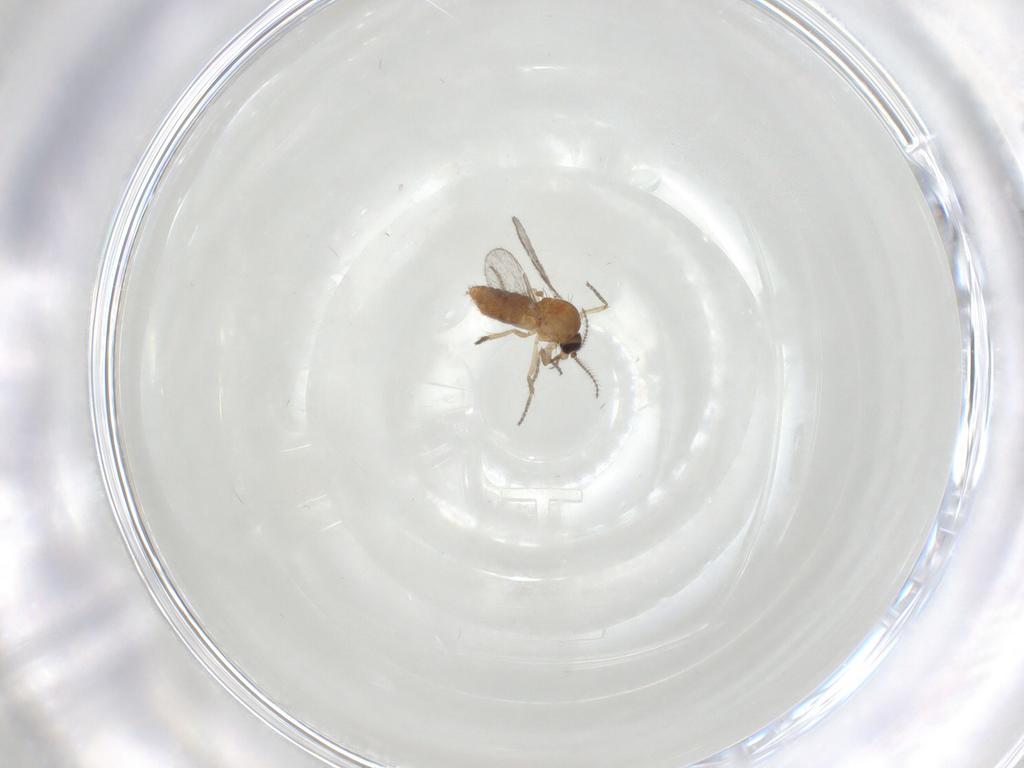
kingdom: Animalia
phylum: Arthropoda
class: Insecta
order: Diptera
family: Ceratopogonidae
